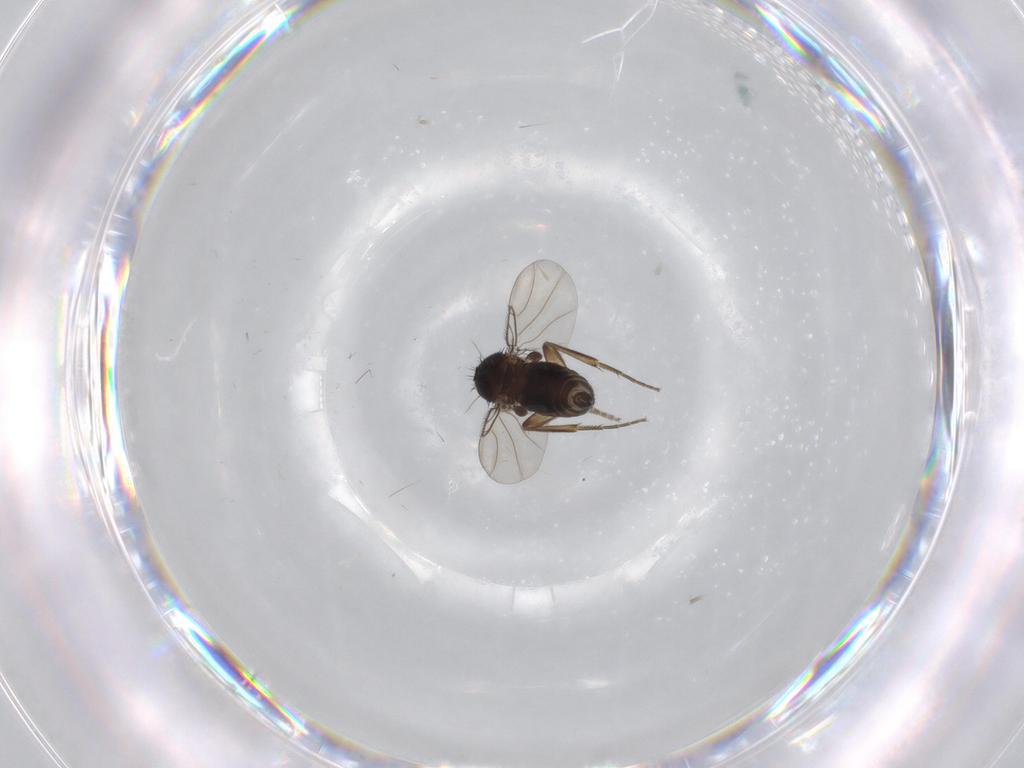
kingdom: Animalia
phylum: Arthropoda
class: Insecta
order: Diptera
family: Phoridae
